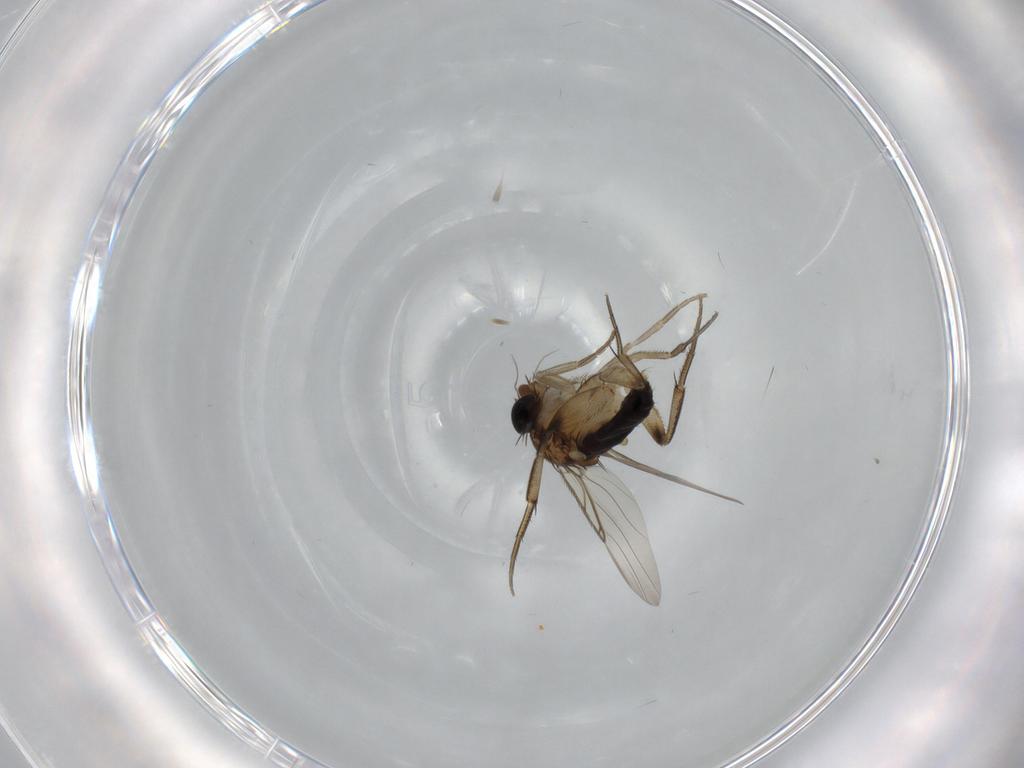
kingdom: Animalia
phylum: Arthropoda
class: Insecta
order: Diptera
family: Phoridae
